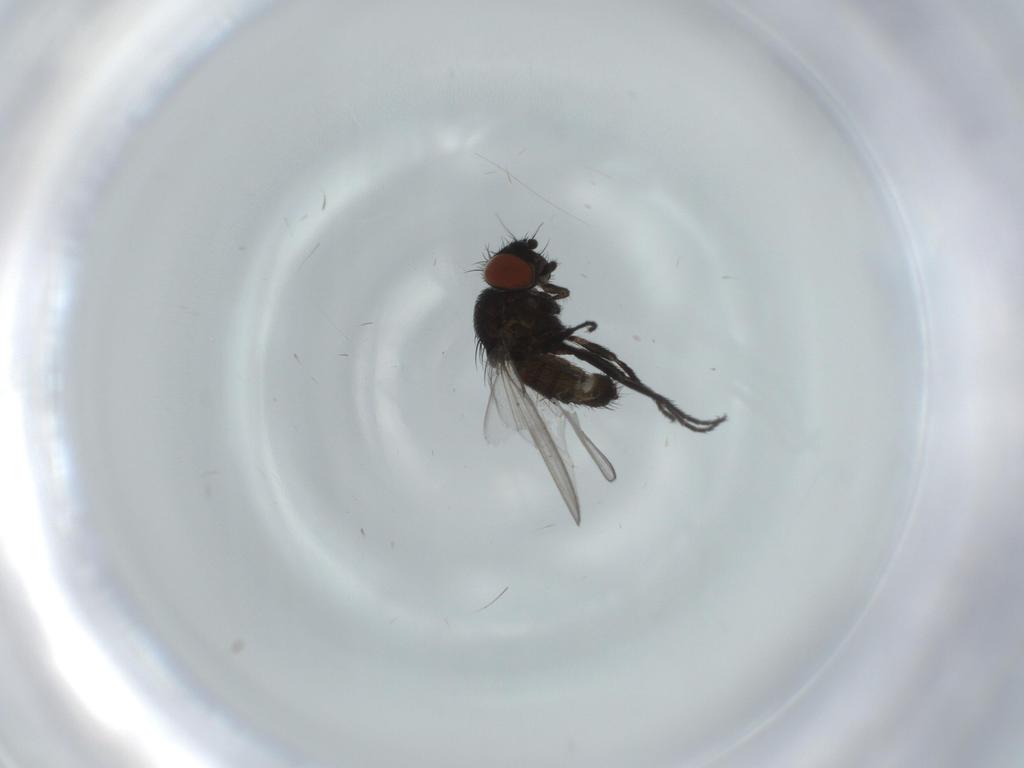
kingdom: Animalia
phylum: Arthropoda
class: Insecta
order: Diptera
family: Milichiidae
